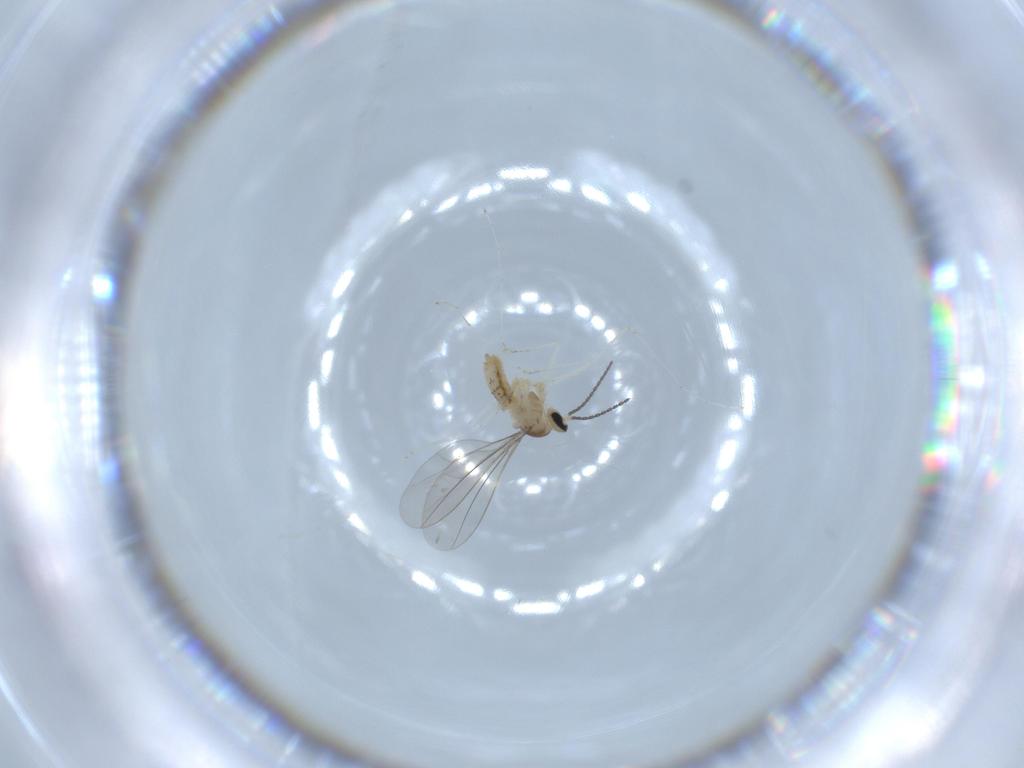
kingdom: Animalia
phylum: Arthropoda
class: Insecta
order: Diptera
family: Cecidomyiidae
